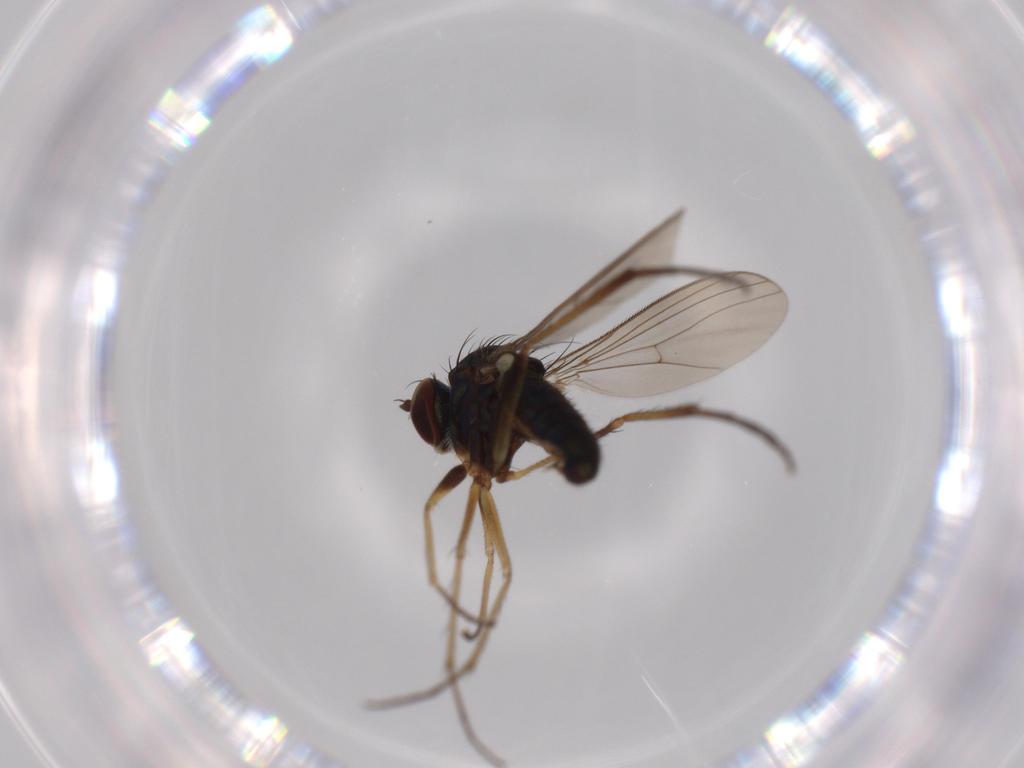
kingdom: Animalia
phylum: Arthropoda
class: Insecta
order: Diptera
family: Dolichopodidae
